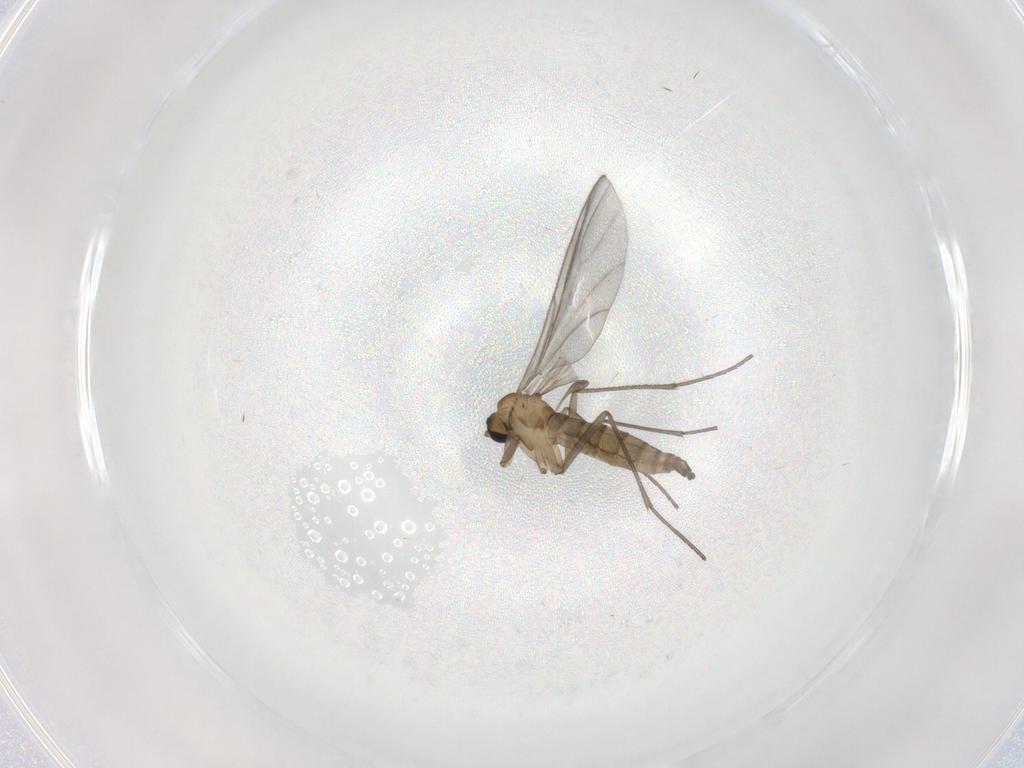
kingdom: Animalia
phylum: Arthropoda
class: Insecta
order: Diptera
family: Sciaridae
